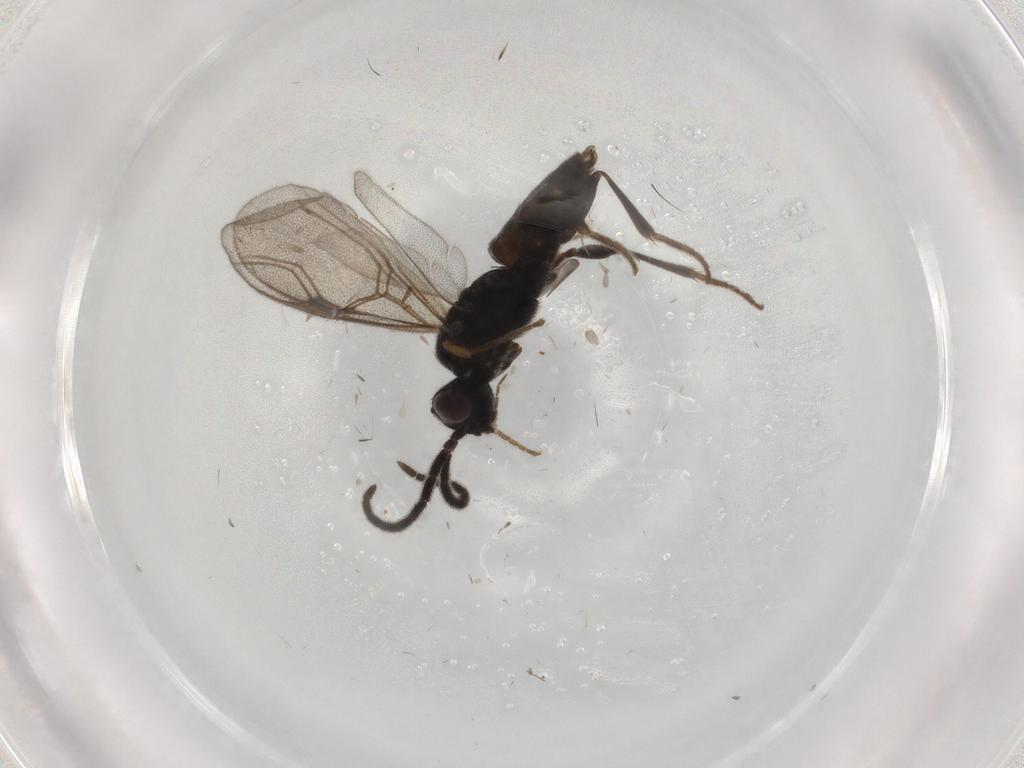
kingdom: Animalia
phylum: Arthropoda
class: Insecta
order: Hymenoptera
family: Dryinidae
